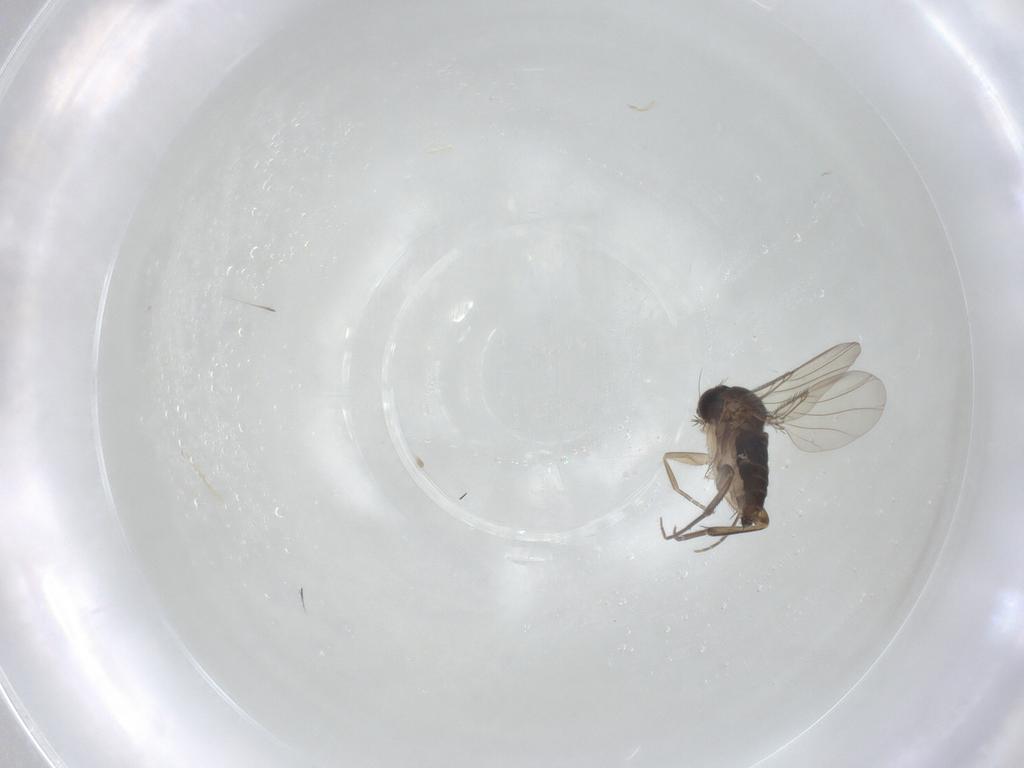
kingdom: Animalia
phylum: Arthropoda
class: Insecta
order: Diptera
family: Phoridae
